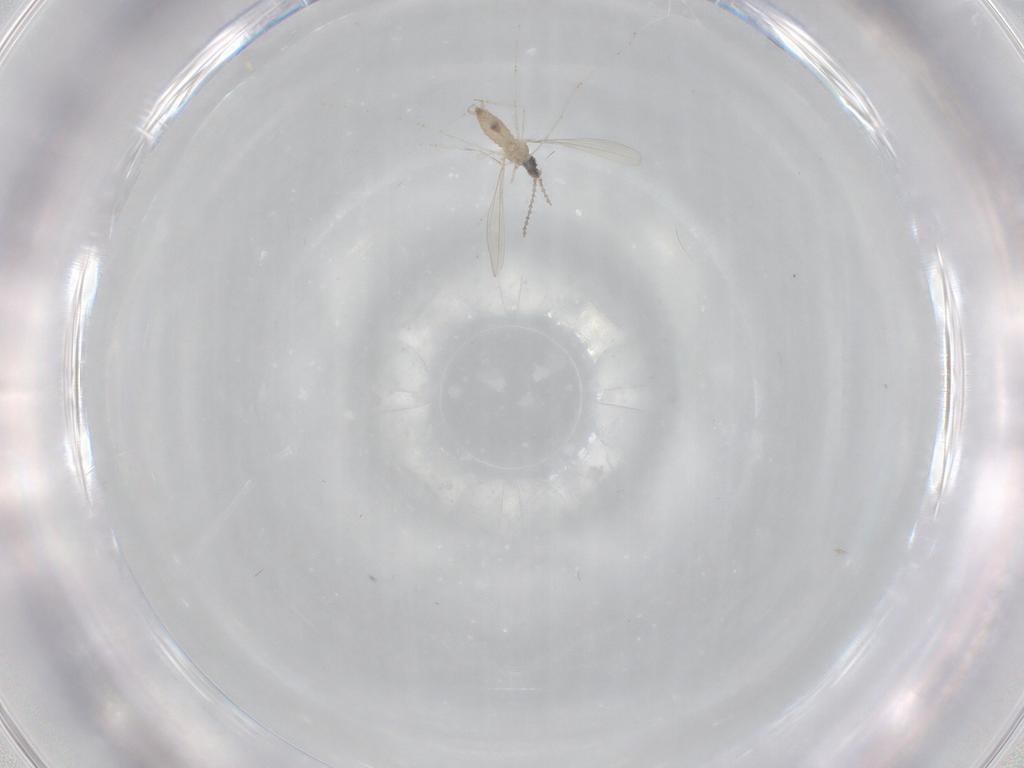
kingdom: Animalia
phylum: Arthropoda
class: Insecta
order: Diptera
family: Cecidomyiidae
